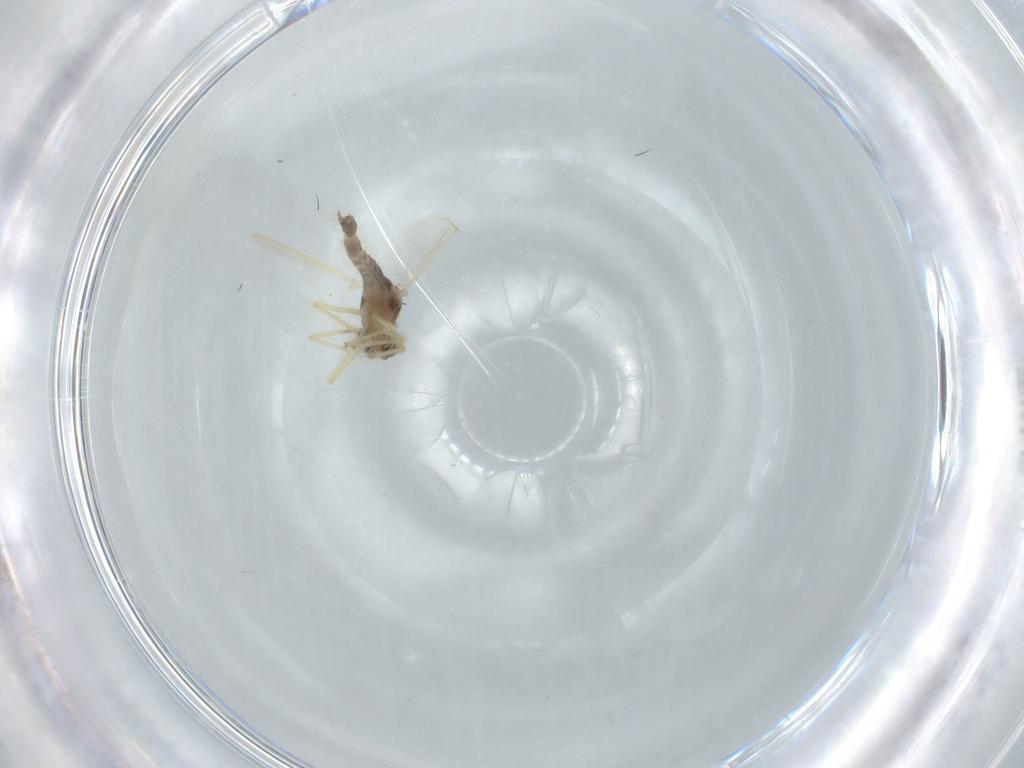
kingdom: Animalia
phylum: Arthropoda
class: Insecta
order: Diptera
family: Chironomidae
